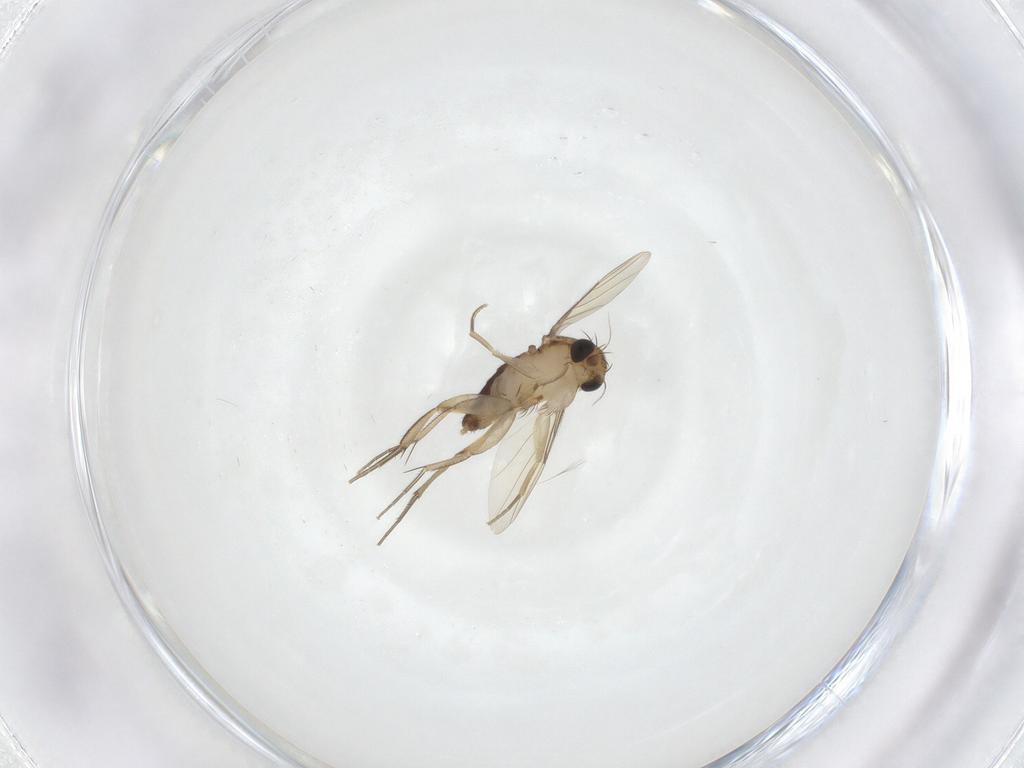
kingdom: Animalia
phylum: Arthropoda
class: Insecta
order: Diptera
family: Phoridae
